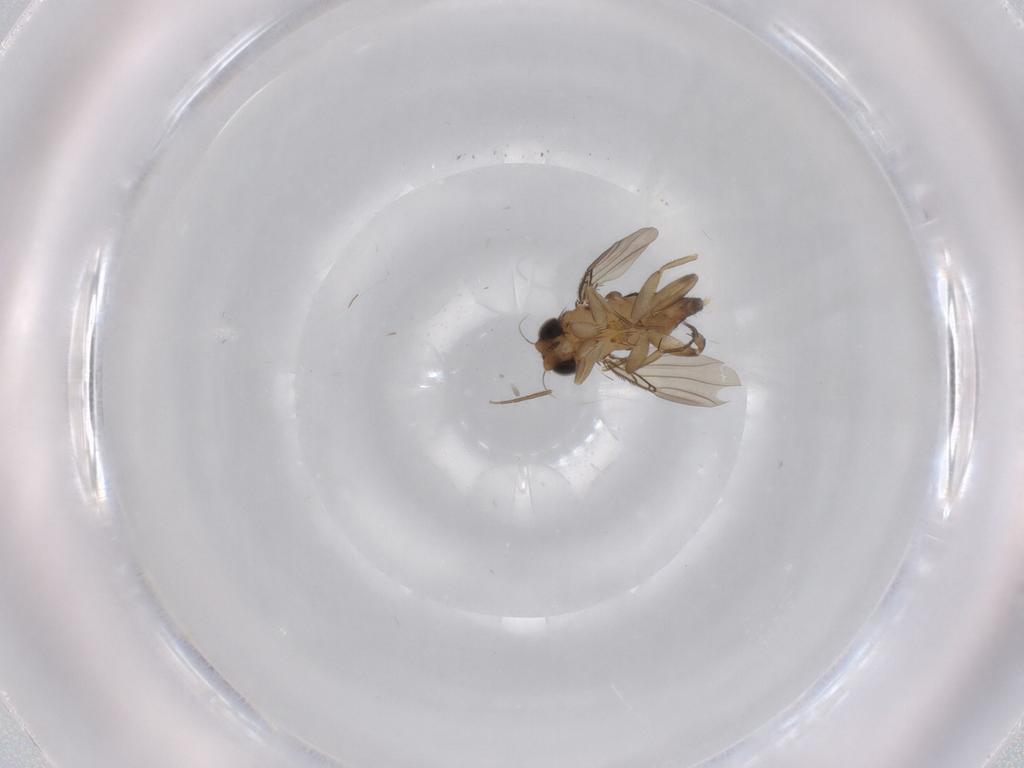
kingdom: Animalia
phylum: Arthropoda
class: Insecta
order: Diptera
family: Phoridae
